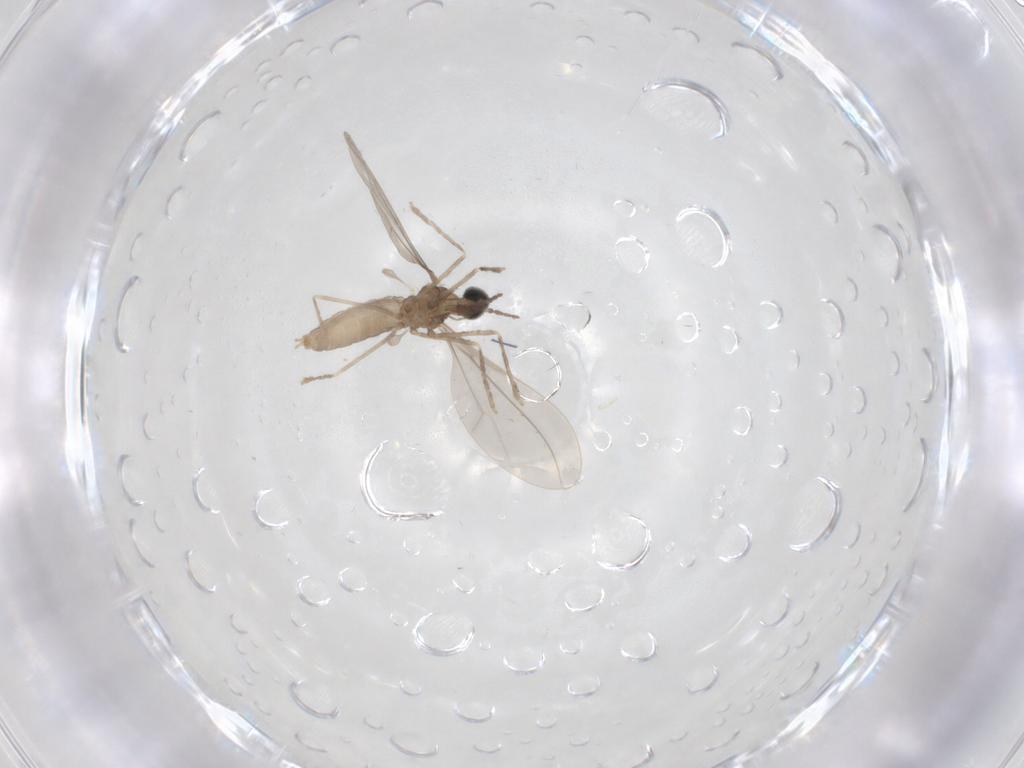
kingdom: Animalia
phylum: Arthropoda
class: Insecta
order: Diptera
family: Cecidomyiidae
